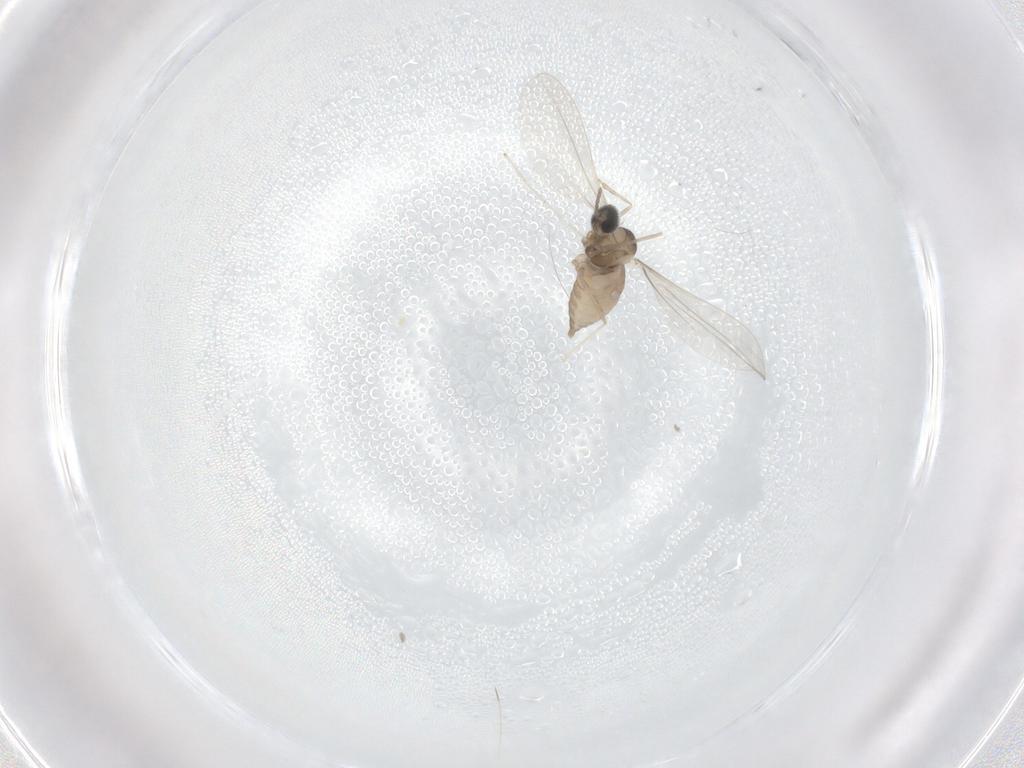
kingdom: Animalia
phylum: Arthropoda
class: Insecta
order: Diptera
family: Cecidomyiidae
